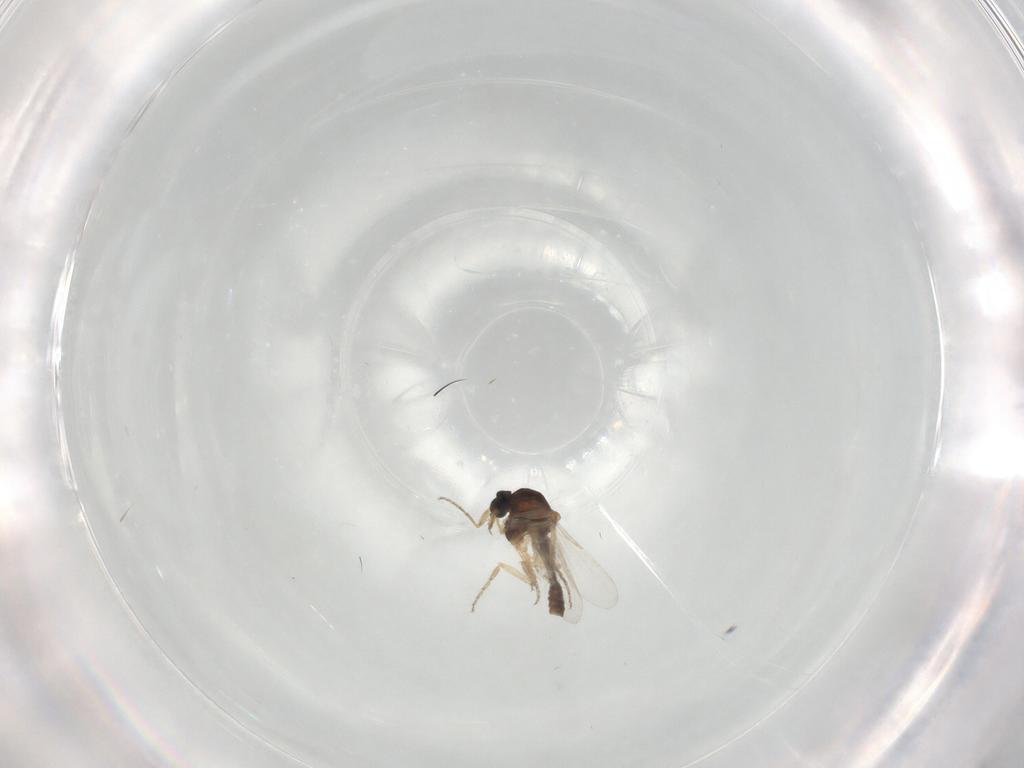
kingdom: Animalia
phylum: Arthropoda
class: Insecta
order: Diptera
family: Ceratopogonidae
